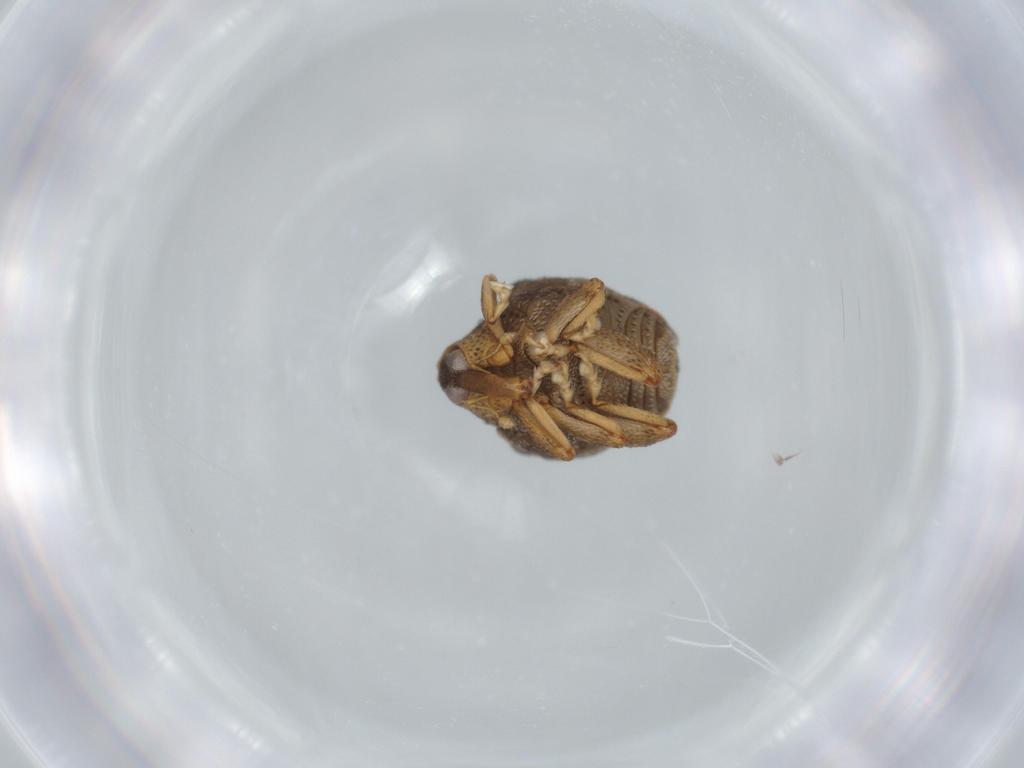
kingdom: Animalia
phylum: Arthropoda
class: Insecta
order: Coleoptera
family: Curculionidae
